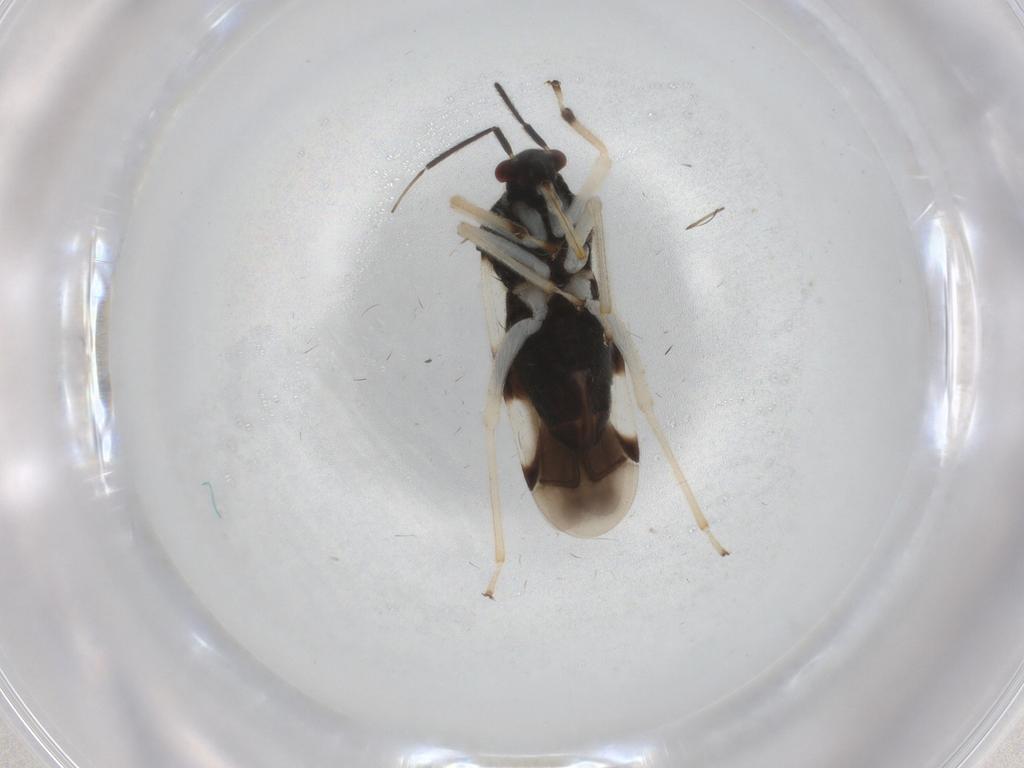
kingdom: Animalia
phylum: Arthropoda
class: Insecta
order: Hemiptera
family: Miridae
